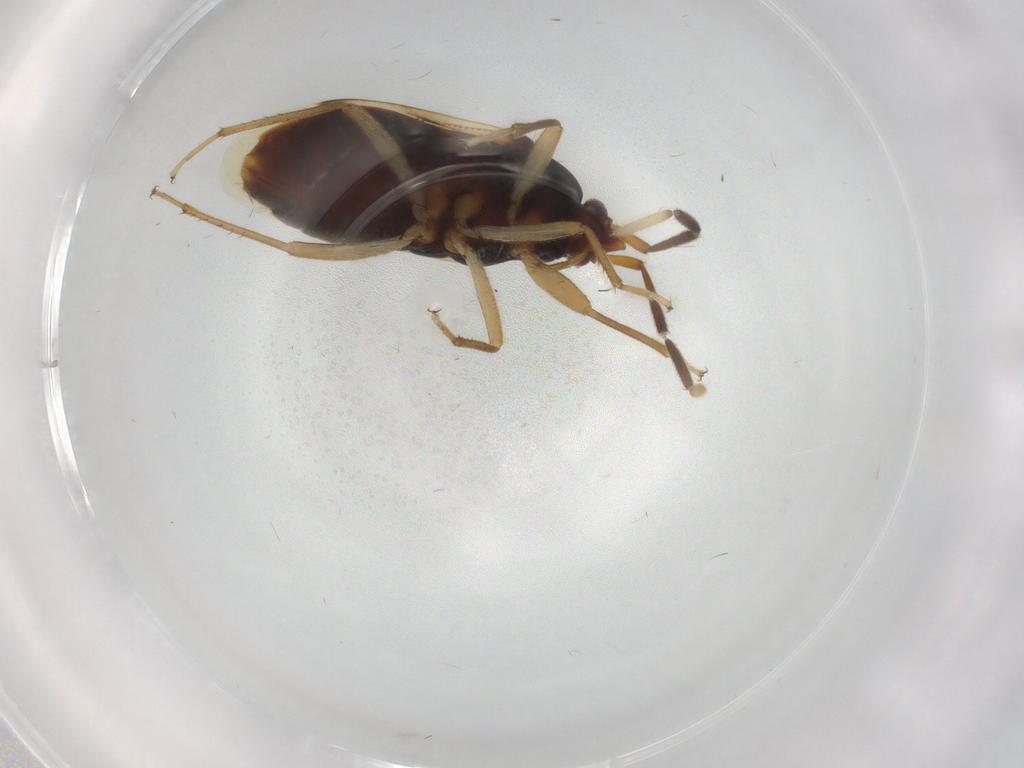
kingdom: Animalia
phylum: Arthropoda
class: Insecta
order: Hemiptera
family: Rhyparochromidae
